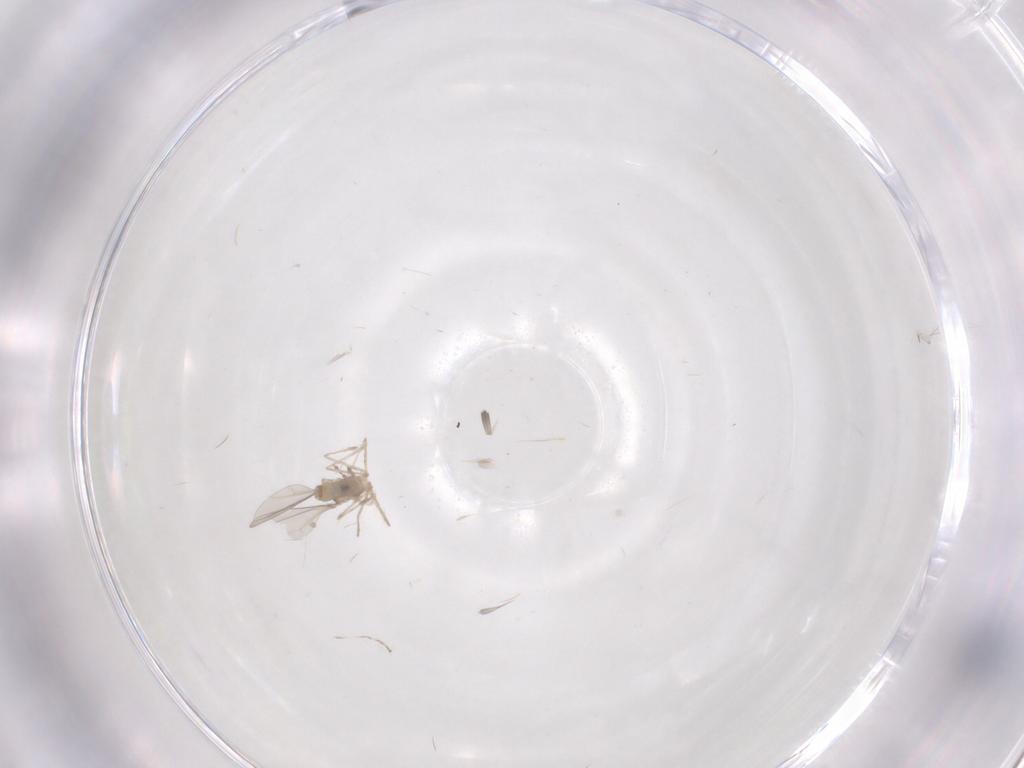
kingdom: Animalia
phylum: Arthropoda
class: Insecta
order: Diptera
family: Cecidomyiidae
